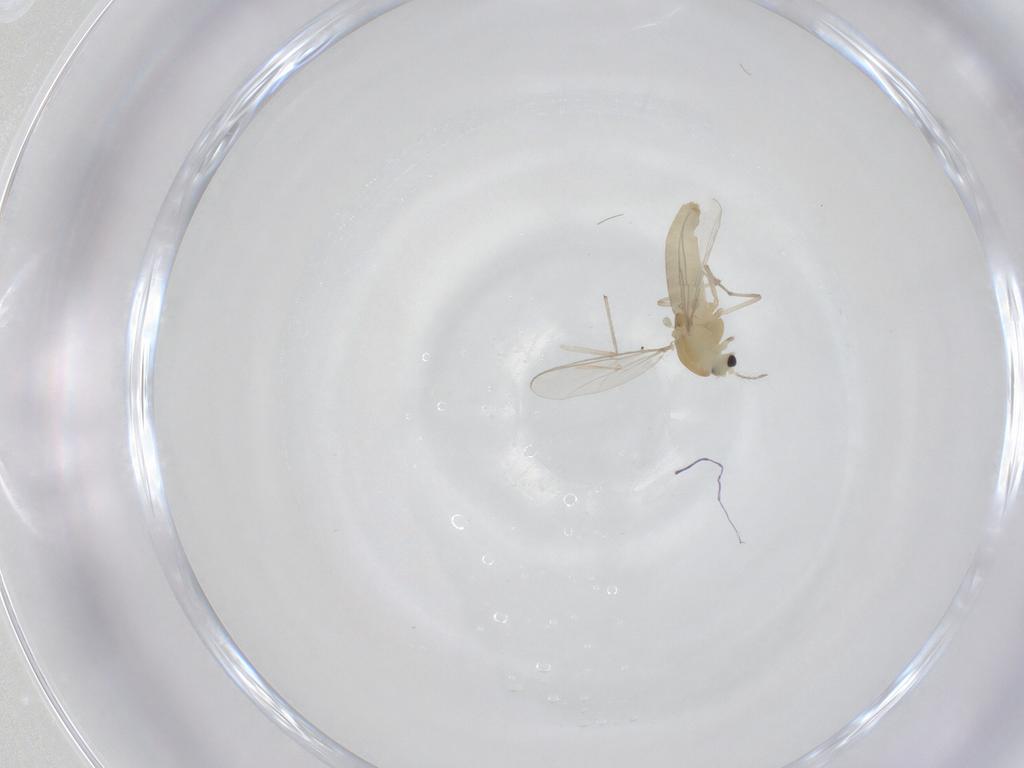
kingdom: Animalia
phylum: Arthropoda
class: Insecta
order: Diptera
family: Chironomidae
